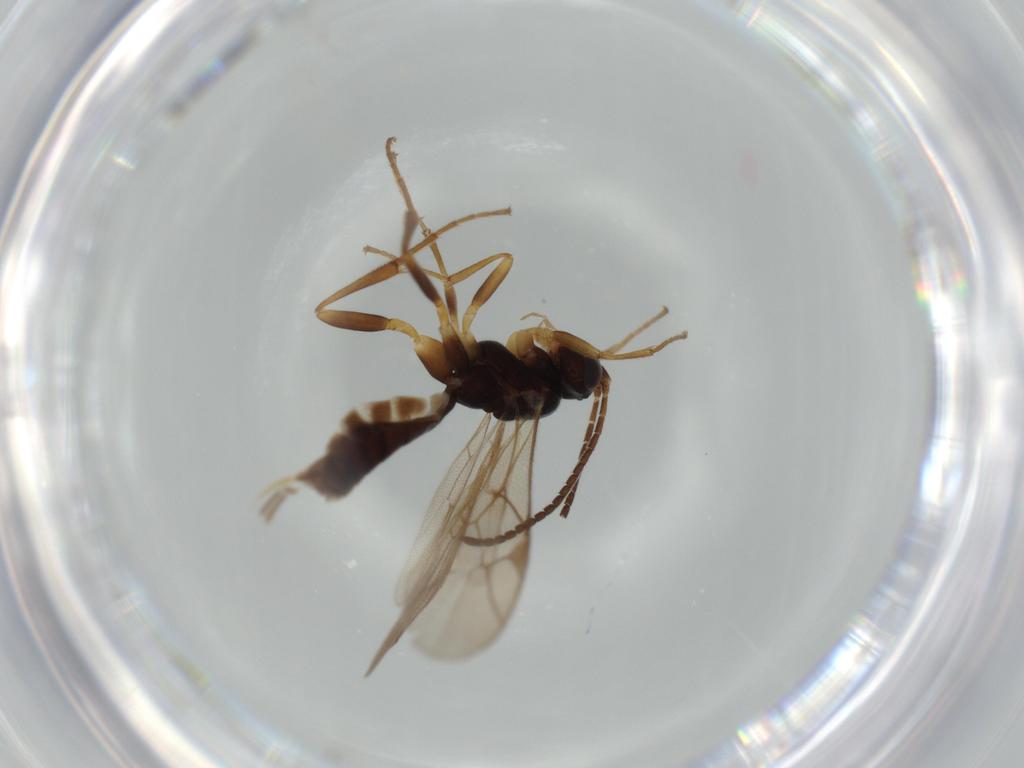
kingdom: Animalia
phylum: Arthropoda
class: Insecta
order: Hymenoptera
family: Ichneumonidae
